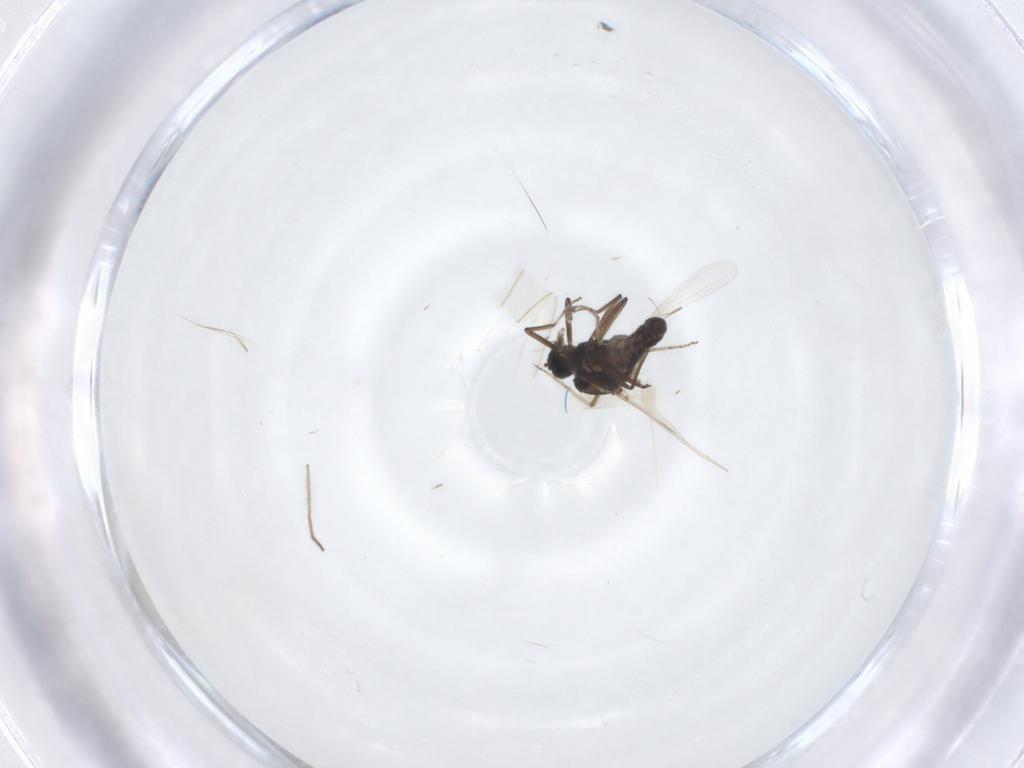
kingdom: Animalia
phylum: Arthropoda
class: Insecta
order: Diptera
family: Ceratopogonidae
